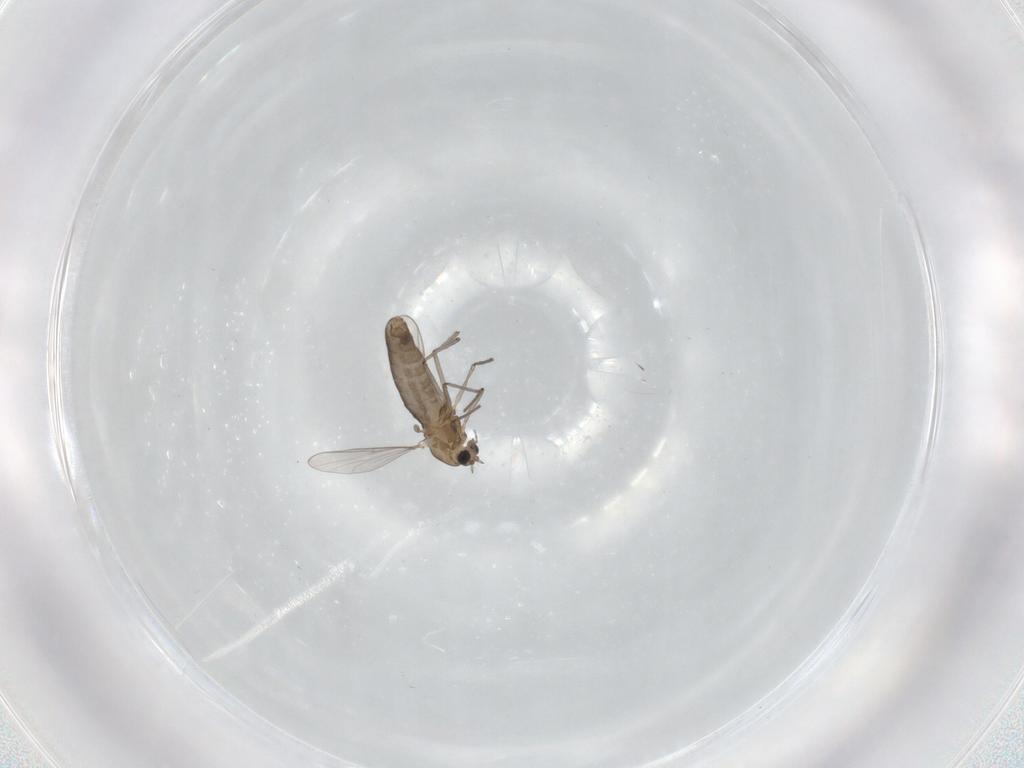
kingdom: Animalia
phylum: Arthropoda
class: Insecta
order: Diptera
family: Chironomidae
